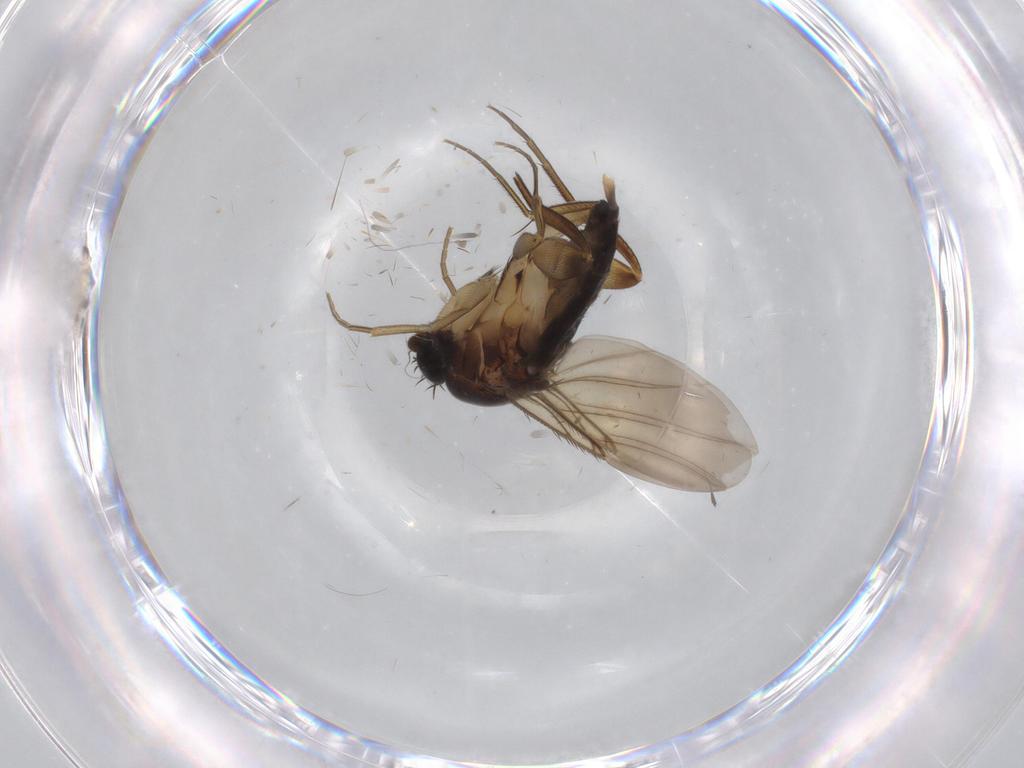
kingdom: Animalia
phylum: Arthropoda
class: Insecta
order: Diptera
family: Phoridae
